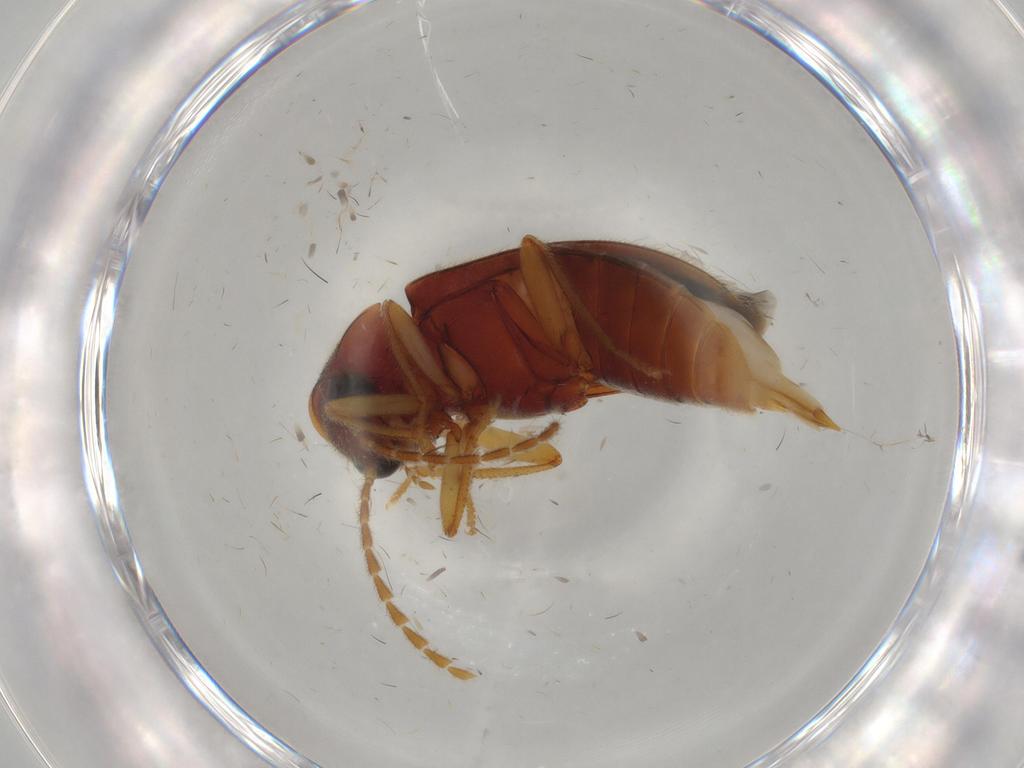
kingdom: Animalia
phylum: Arthropoda
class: Insecta
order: Coleoptera
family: Ptilodactylidae
